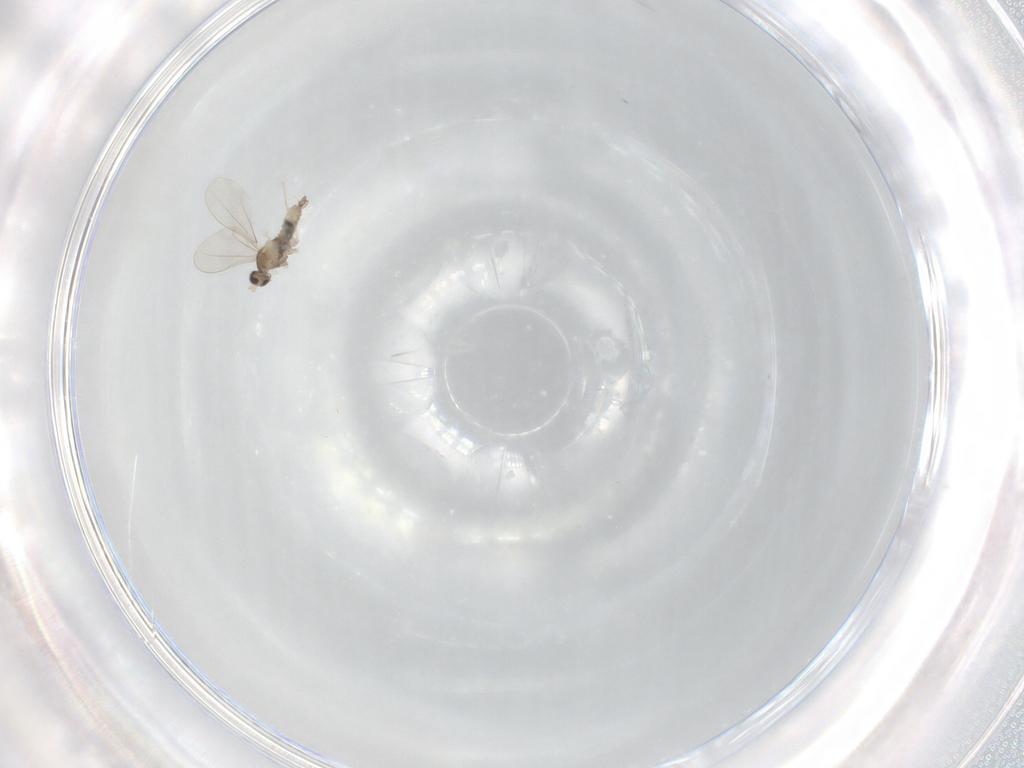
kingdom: Animalia
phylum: Arthropoda
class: Insecta
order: Diptera
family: Cecidomyiidae
